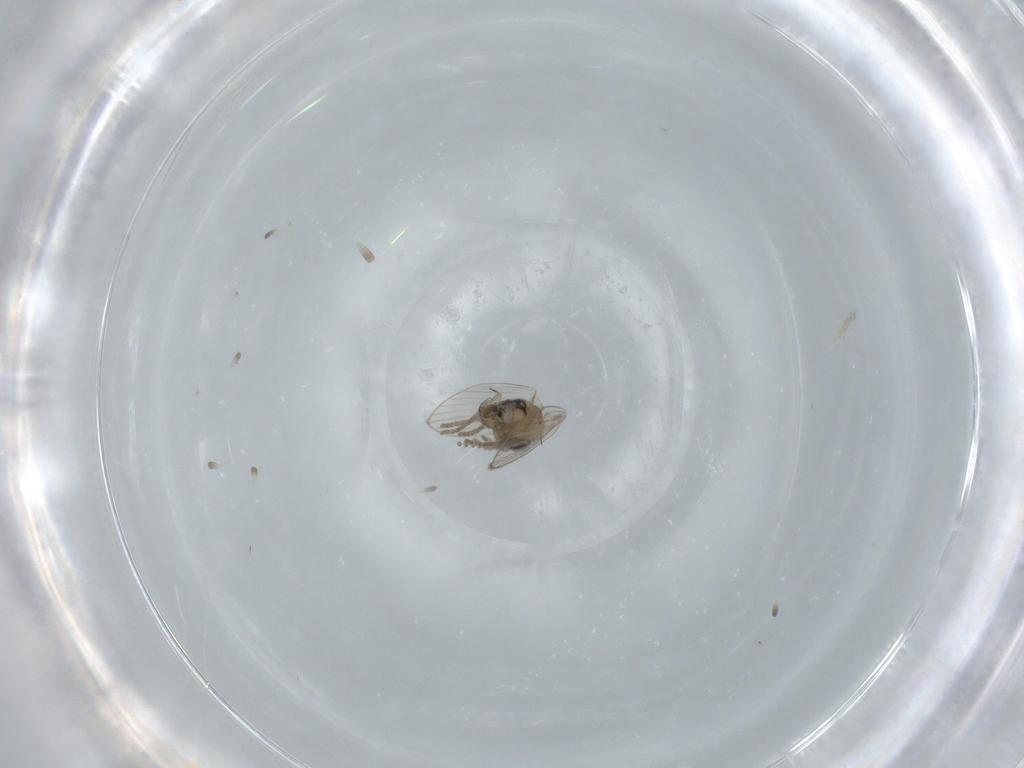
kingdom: Animalia
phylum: Arthropoda
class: Insecta
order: Diptera
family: Psychodidae
